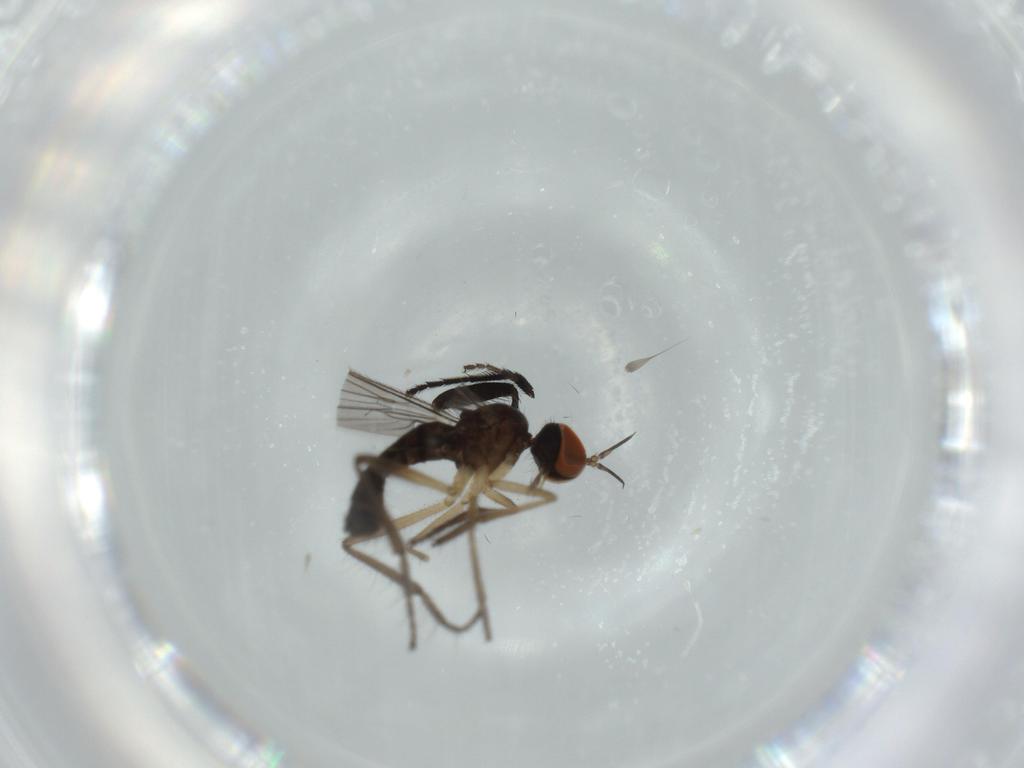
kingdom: Animalia
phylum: Arthropoda
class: Insecta
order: Diptera
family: Empididae
